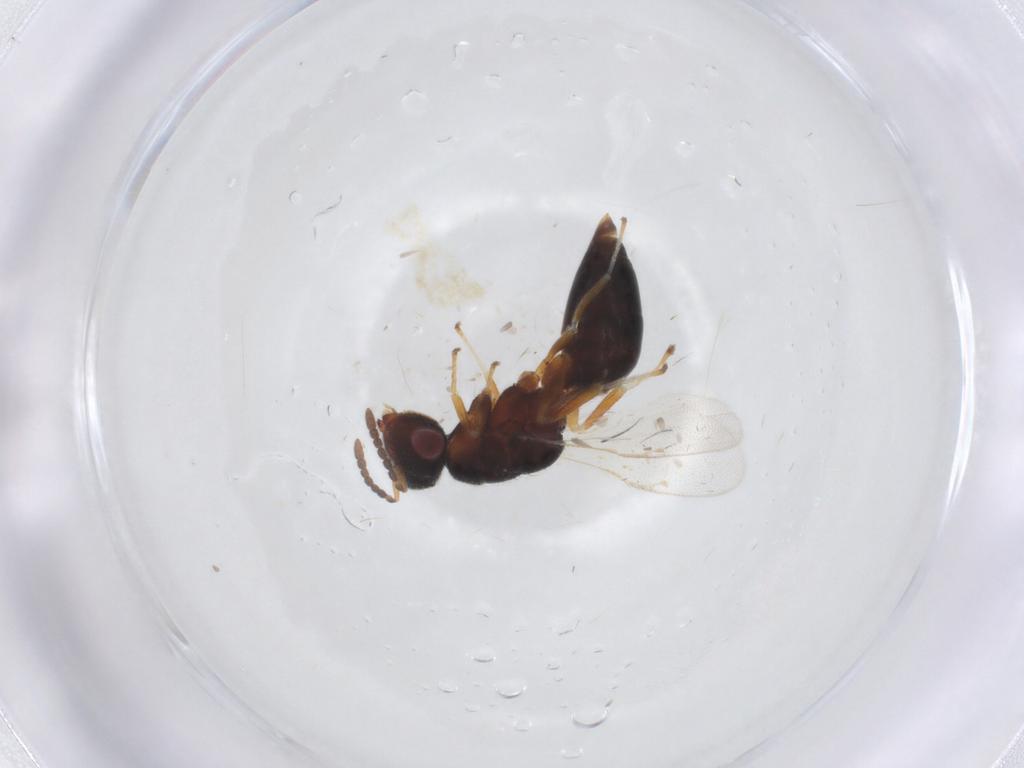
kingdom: Animalia
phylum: Arthropoda
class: Insecta
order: Hymenoptera
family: Eurytomidae
